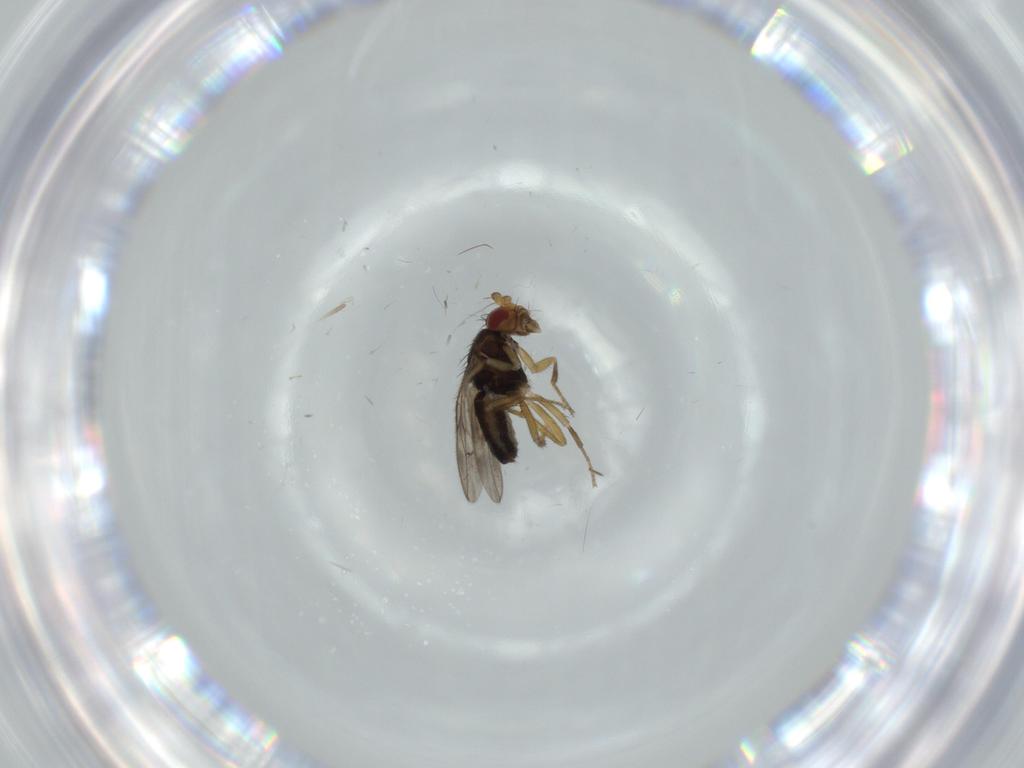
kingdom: Animalia
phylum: Arthropoda
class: Insecta
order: Diptera
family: Sphaeroceridae
